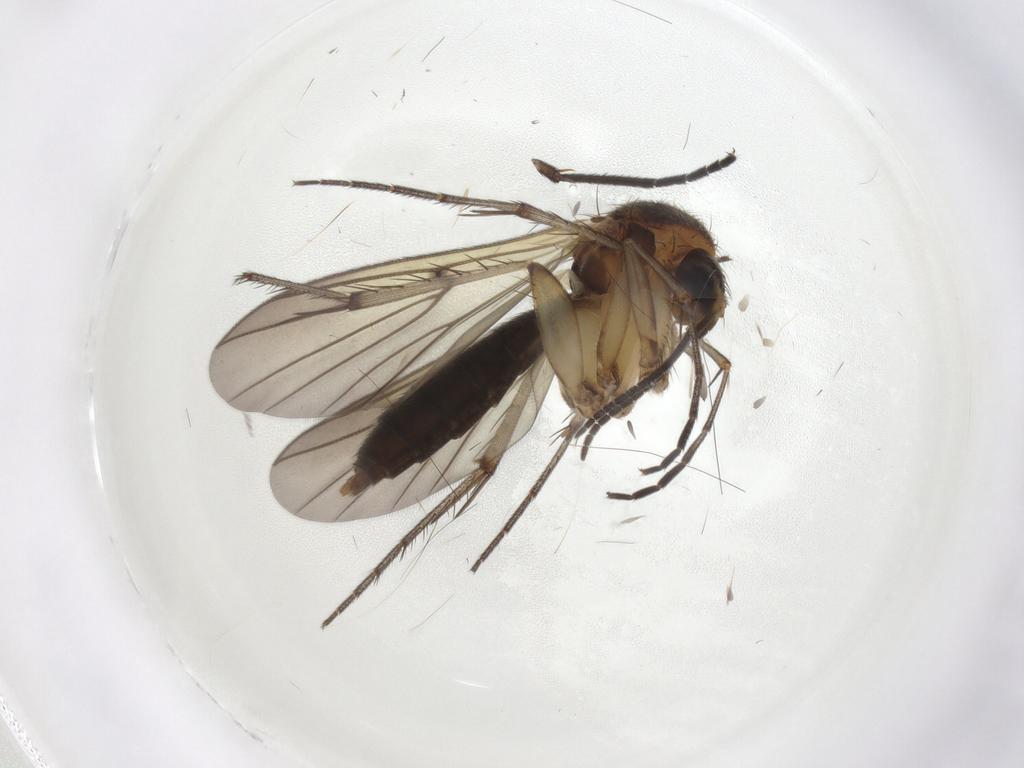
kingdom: Animalia
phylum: Arthropoda
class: Insecta
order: Diptera
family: Mycetophilidae
